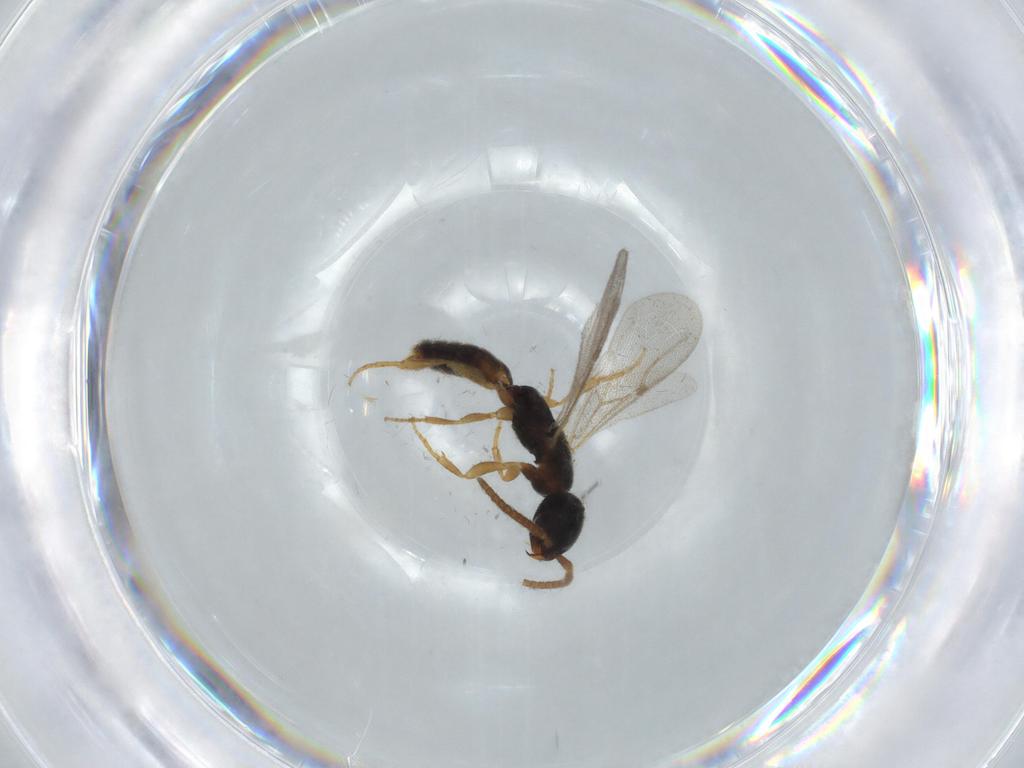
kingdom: Animalia
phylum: Arthropoda
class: Insecta
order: Hymenoptera
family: Bethylidae
